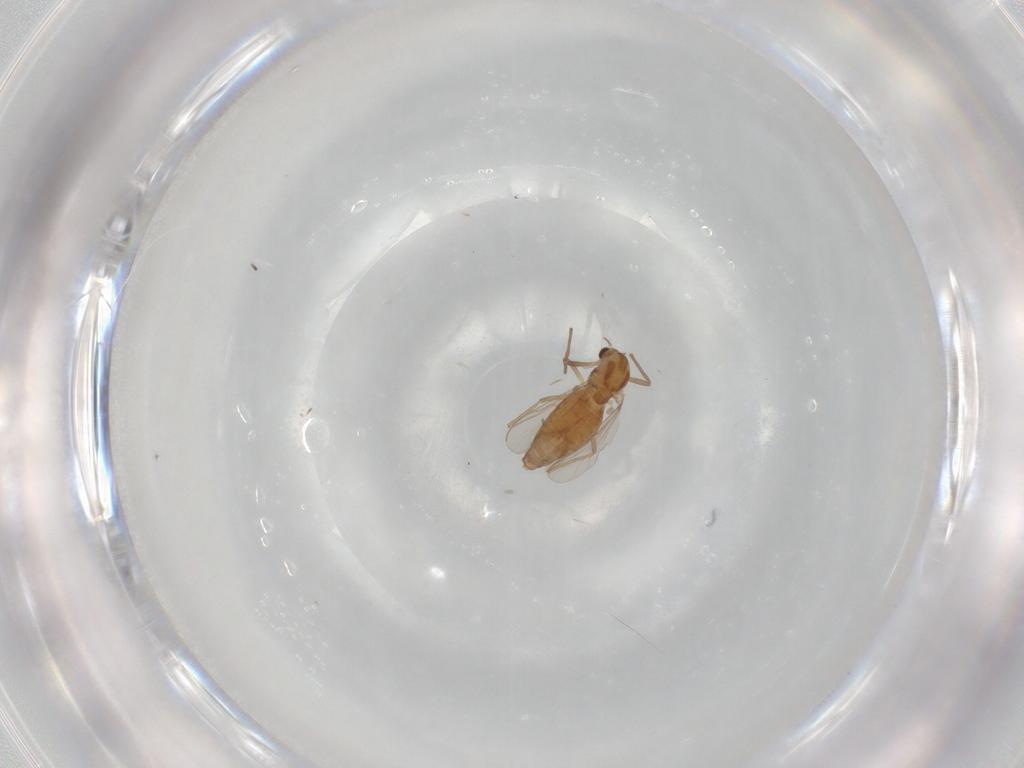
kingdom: Animalia
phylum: Arthropoda
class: Insecta
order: Diptera
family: Chironomidae
